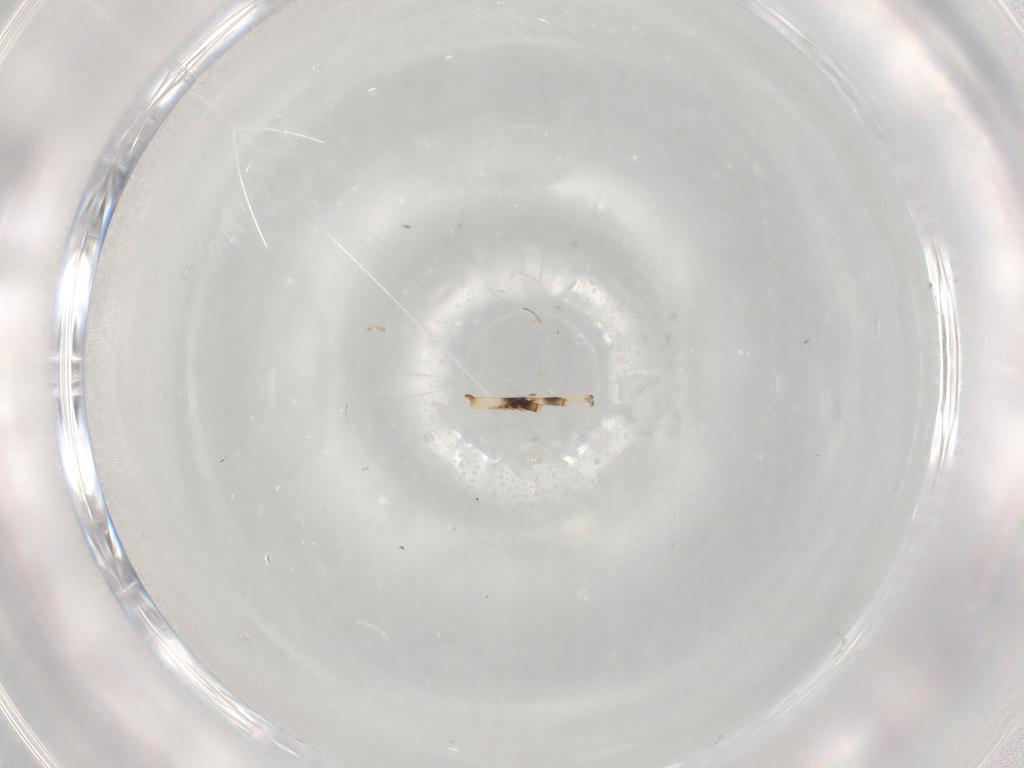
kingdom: Animalia
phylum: Arthropoda
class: Insecta
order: Hemiptera
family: Cicadellidae
